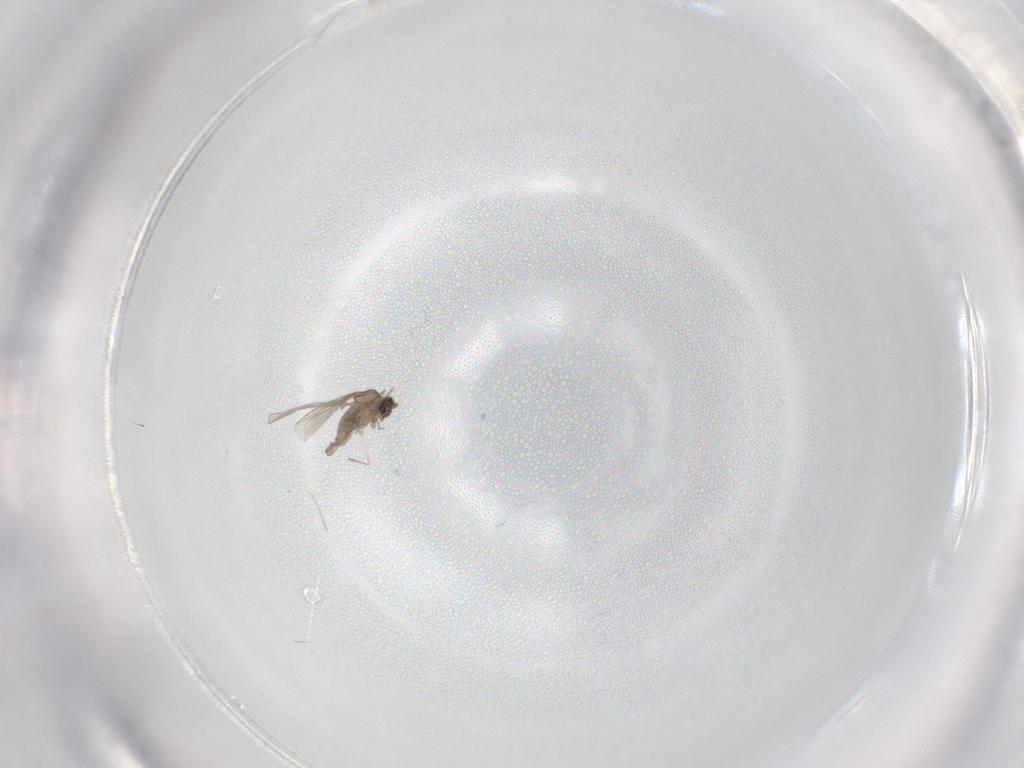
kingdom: Animalia
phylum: Arthropoda
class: Insecta
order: Diptera
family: Cecidomyiidae
